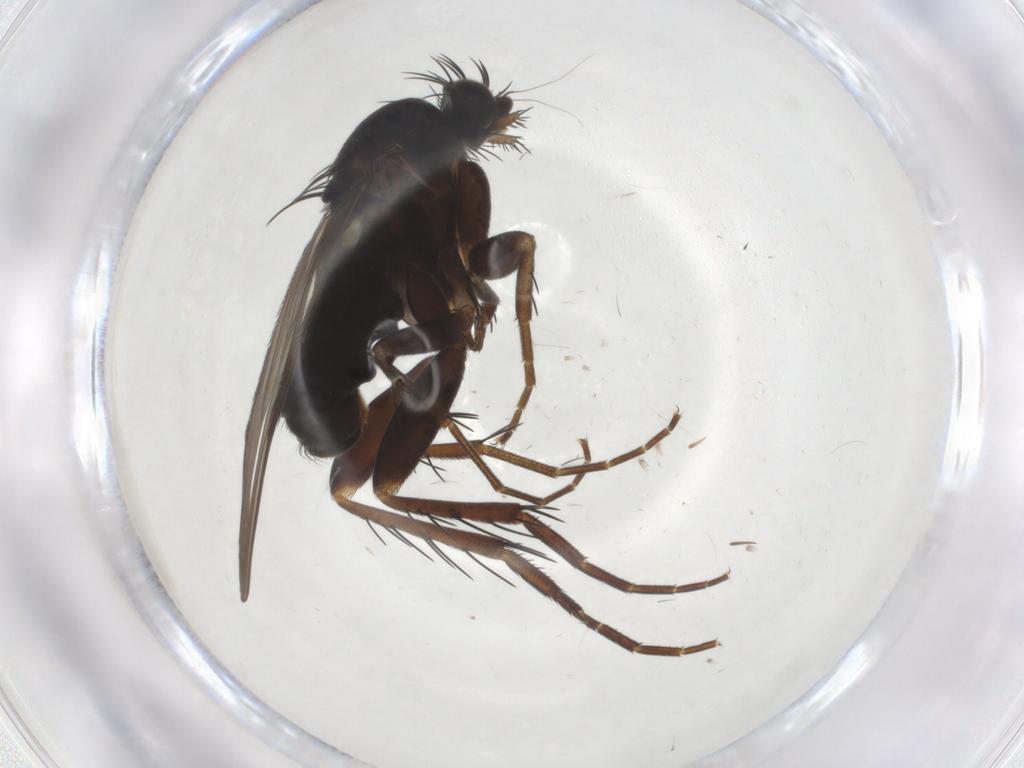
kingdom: Animalia
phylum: Arthropoda
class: Insecta
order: Diptera
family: Phoridae
